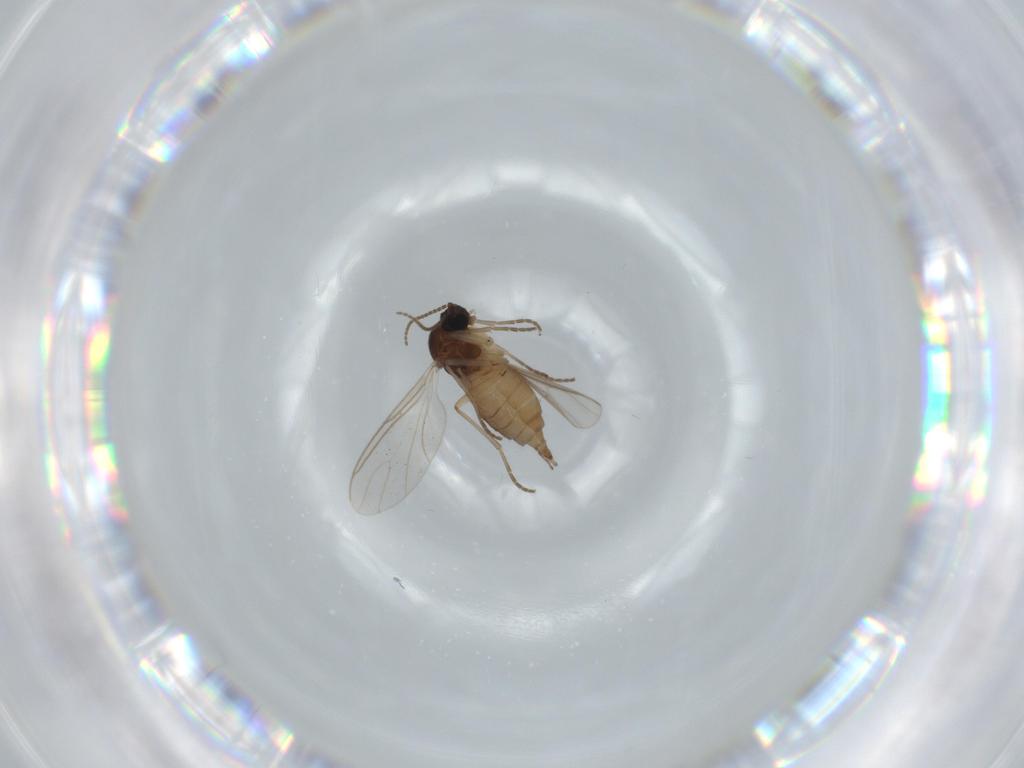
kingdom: Animalia
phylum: Arthropoda
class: Insecta
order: Diptera
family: Sciaridae
